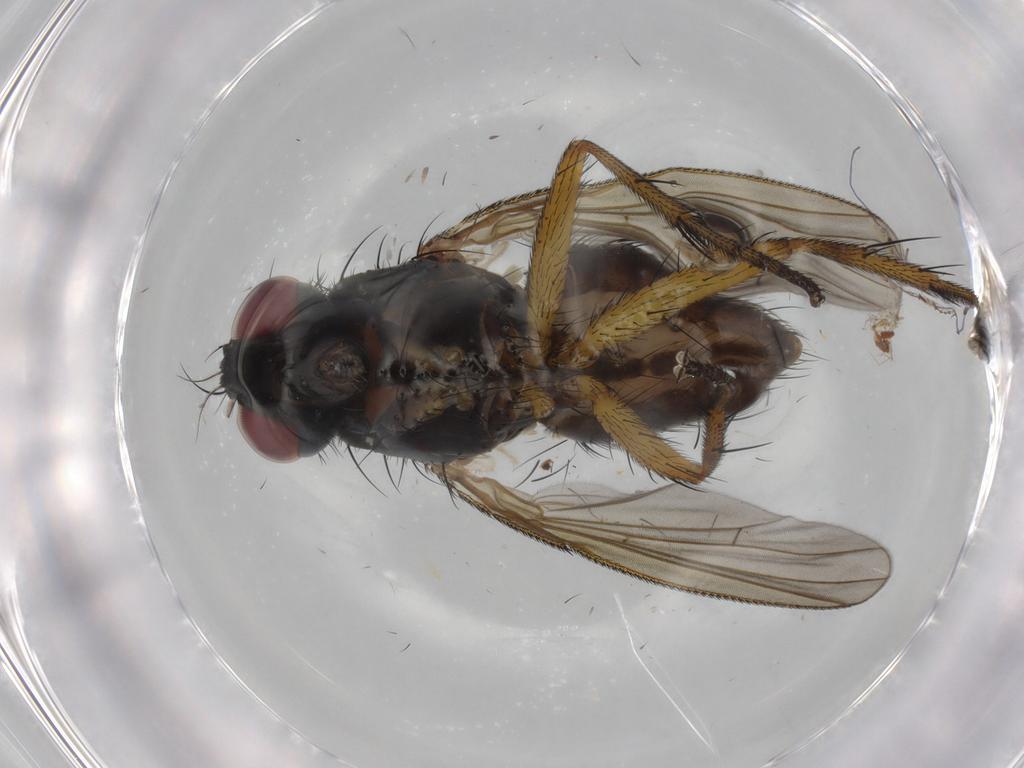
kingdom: Animalia
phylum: Arthropoda
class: Insecta
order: Diptera
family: Muscidae
